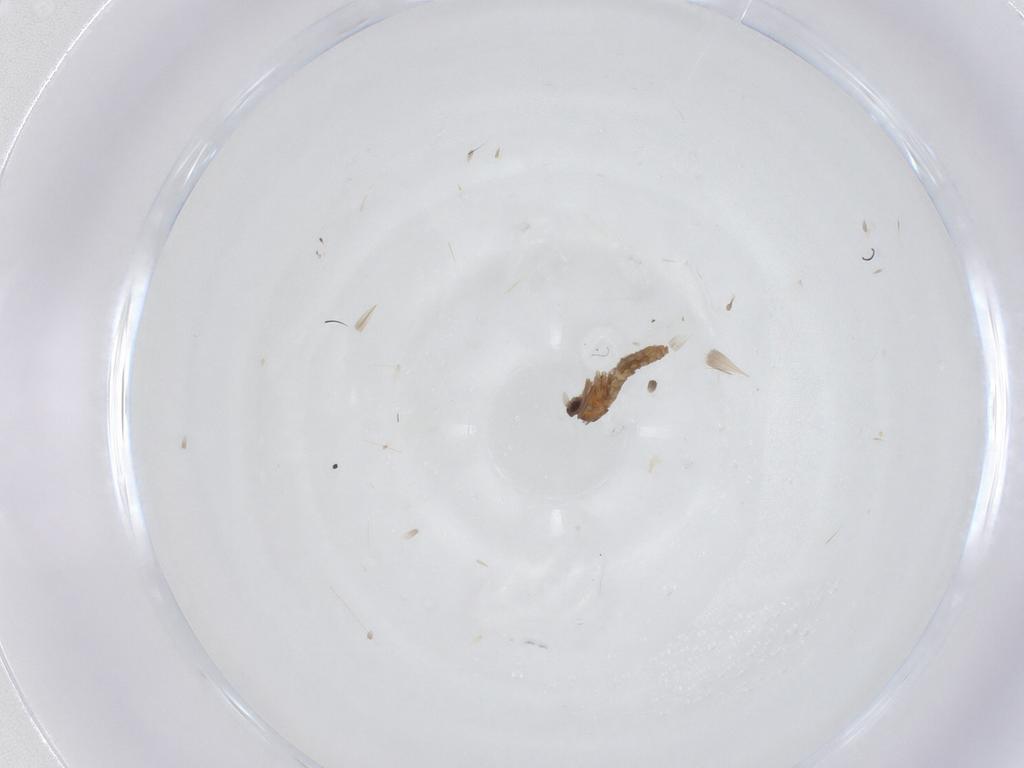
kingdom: Animalia
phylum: Arthropoda
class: Insecta
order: Diptera
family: Cecidomyiidae
